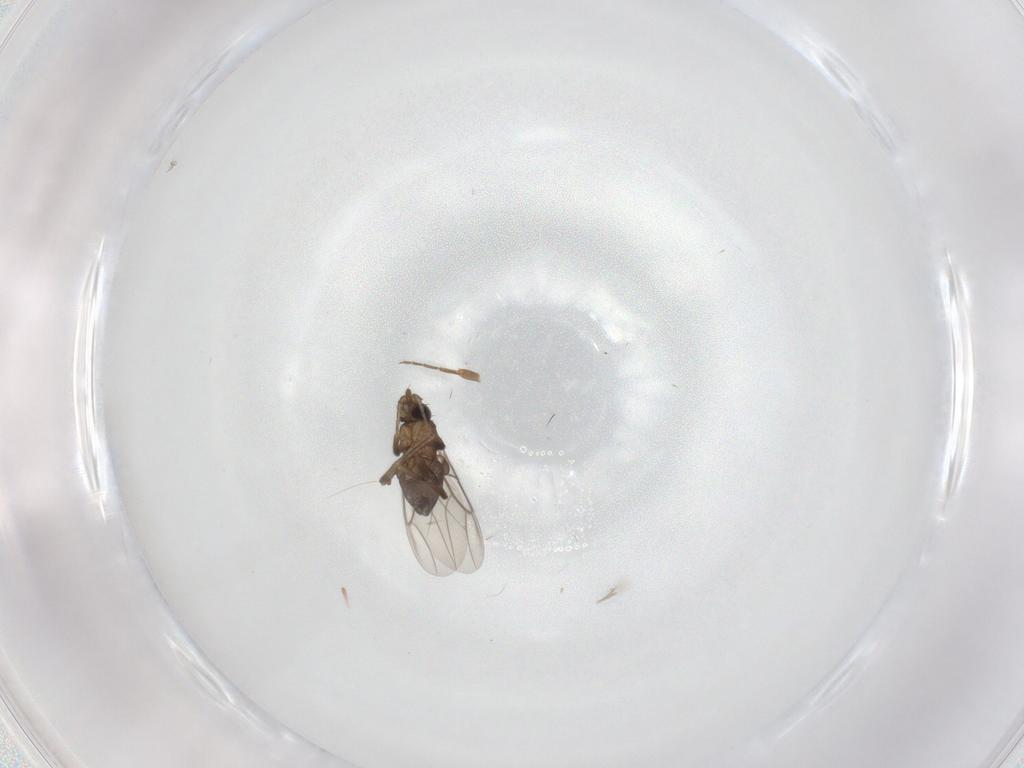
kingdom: Animalia
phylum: Arthropoda
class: Insecta
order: Diptera
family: Phoridae
